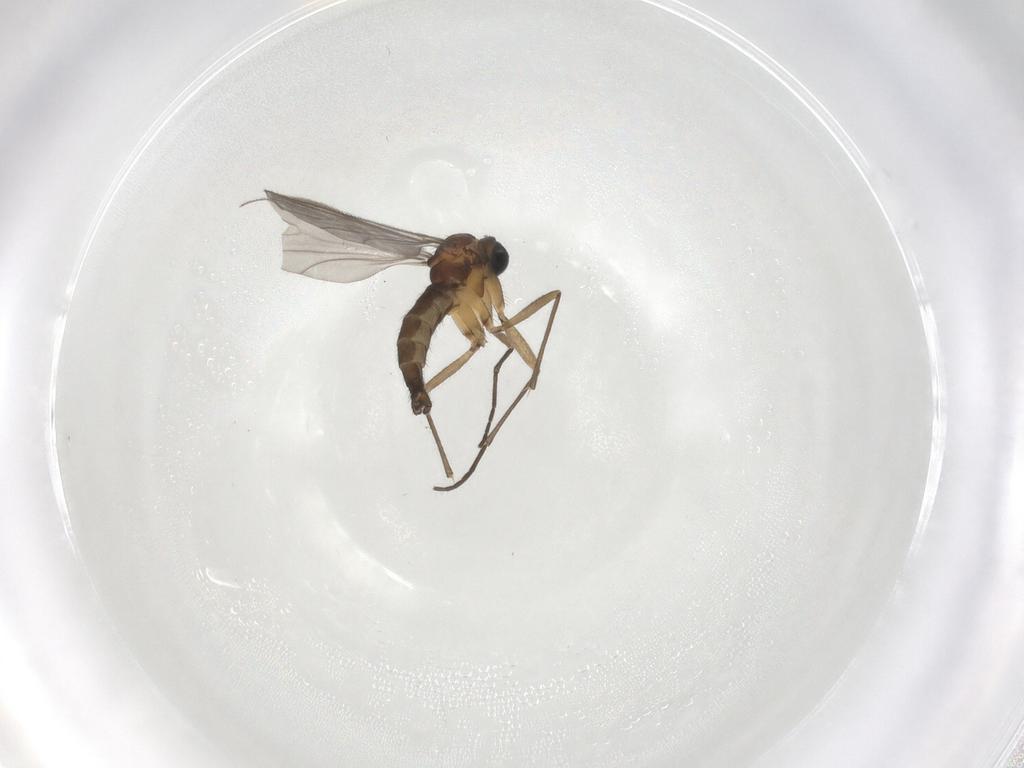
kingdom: Animalia
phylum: Arthropoda
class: Insecta
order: Diptera
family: Sciaridae
